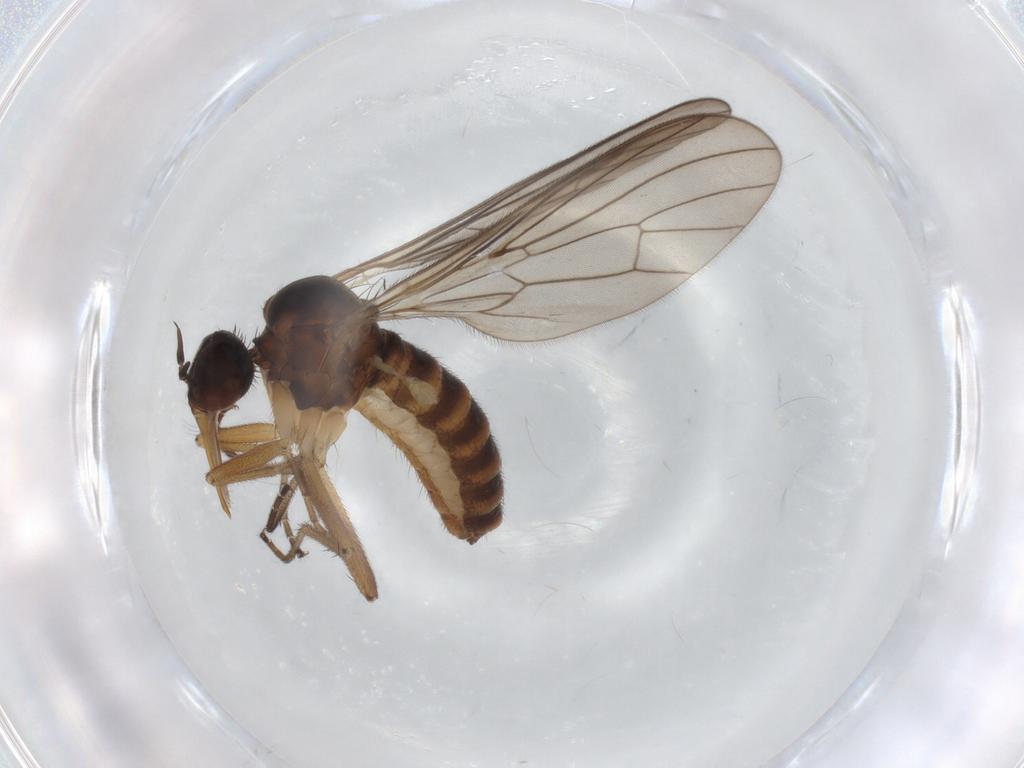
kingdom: Animalia
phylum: Arthropoda
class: Insecta
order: Diptera
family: Empididae
